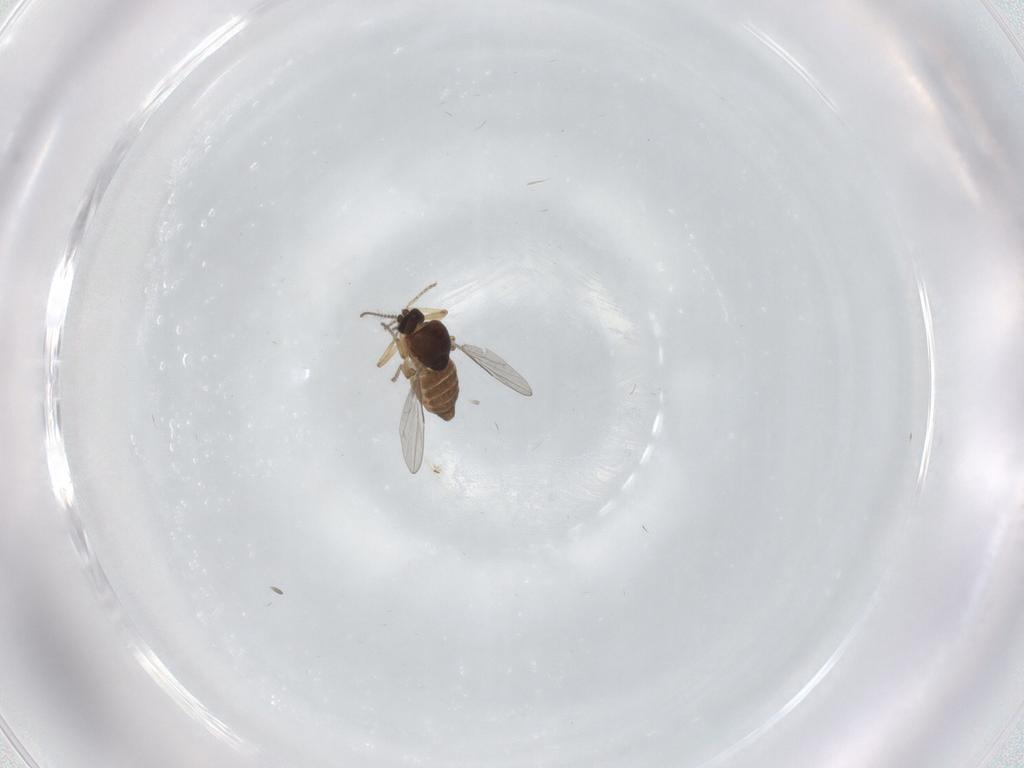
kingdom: Animalia
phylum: Arthropoda
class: Insecta
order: Diptera
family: Ceratopogonidae
